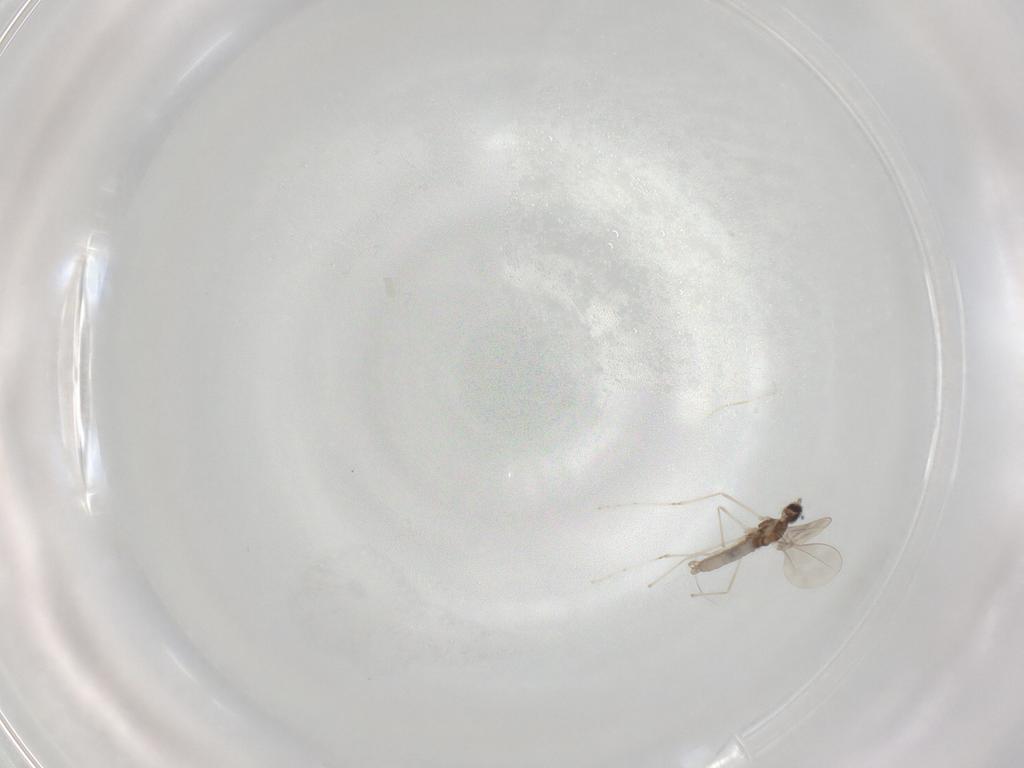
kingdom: Animalia
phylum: Arthropoda
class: Insecta
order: Diptera
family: Cecidomyiidae
